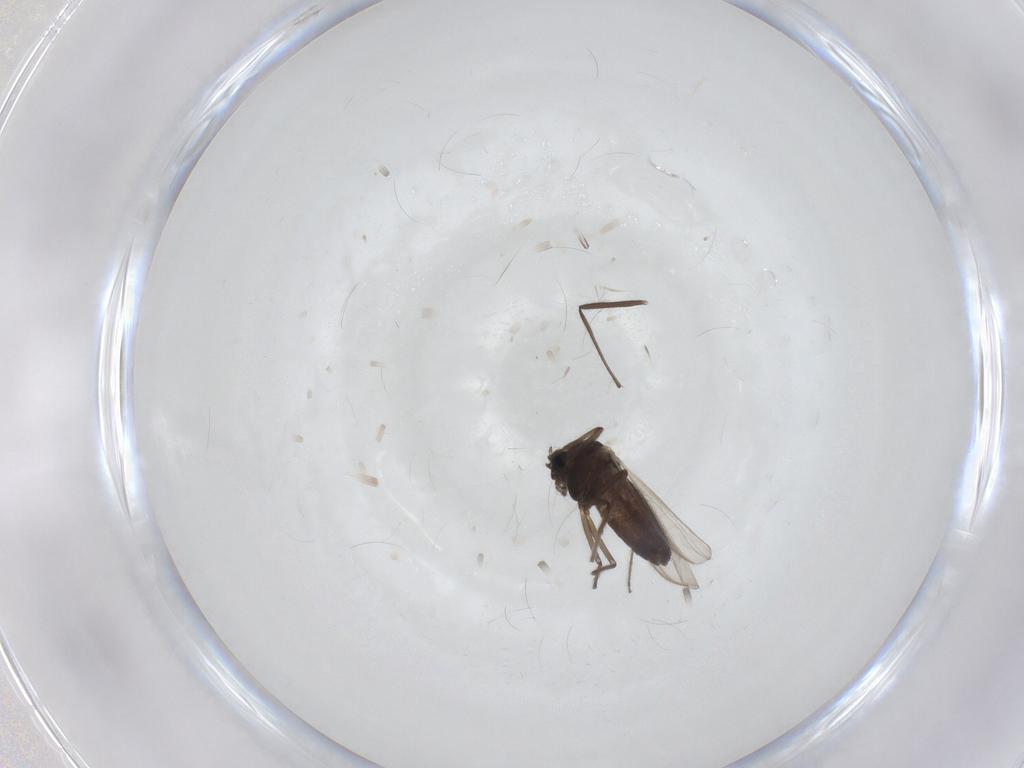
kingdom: Animalia
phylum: Arthropoda
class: Insecta
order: Diptera
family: Chironomidae
